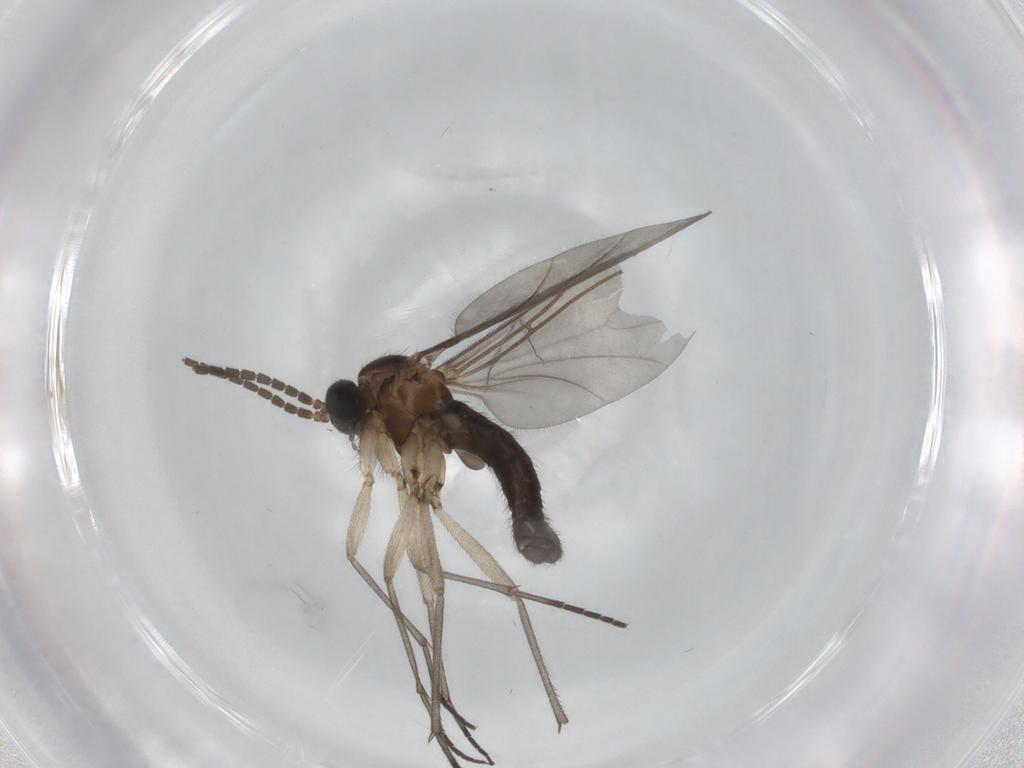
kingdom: Animalia
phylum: Arthropoda
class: Insecta
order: Diptera
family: Sciaridae
